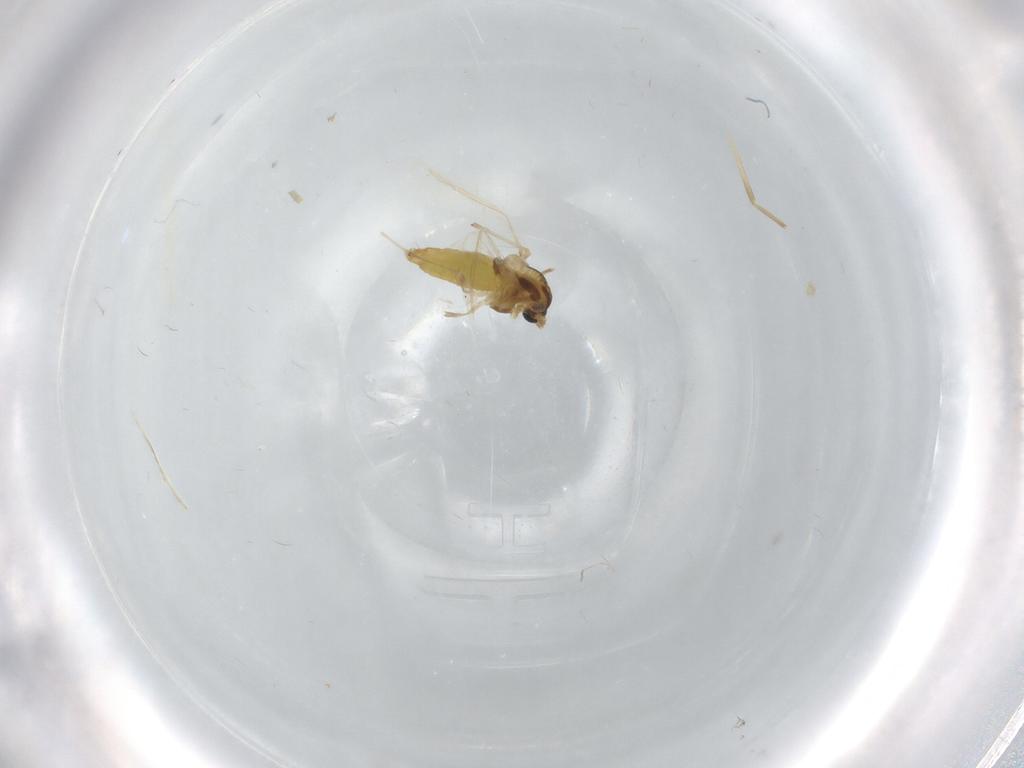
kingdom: Animalia
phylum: Arthropoda
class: Insecta
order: Diptera
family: Chironomidae
